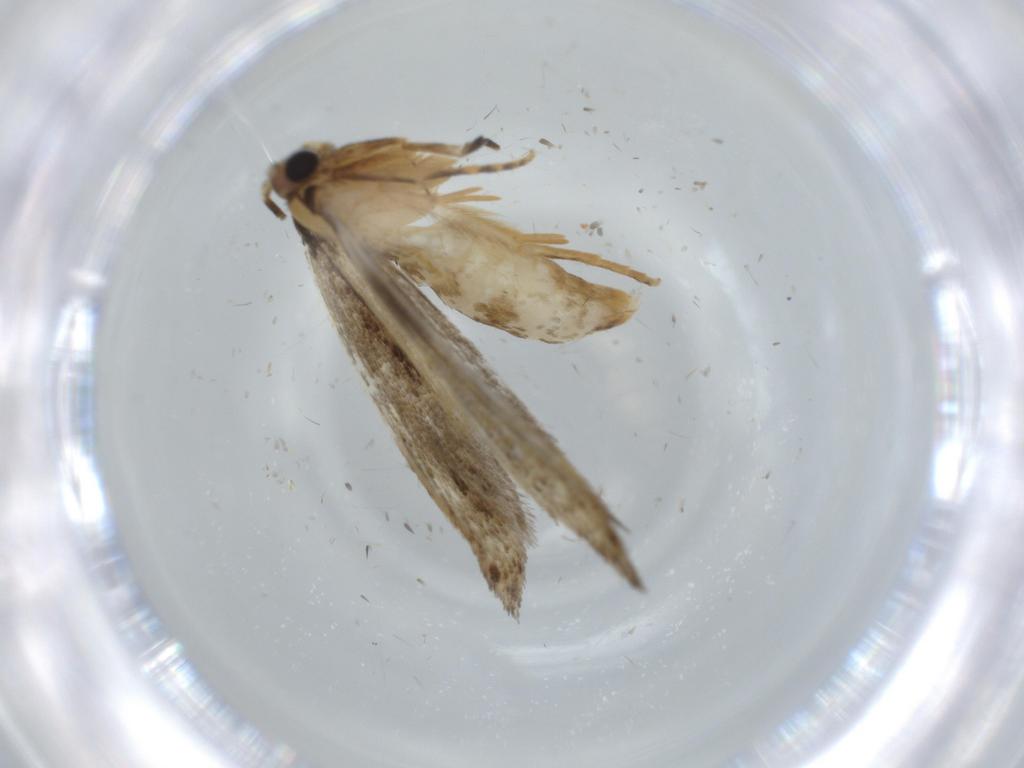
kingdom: Animalia
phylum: Arthropoda
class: Insecta
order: Lepidoptera
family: Tineidae
